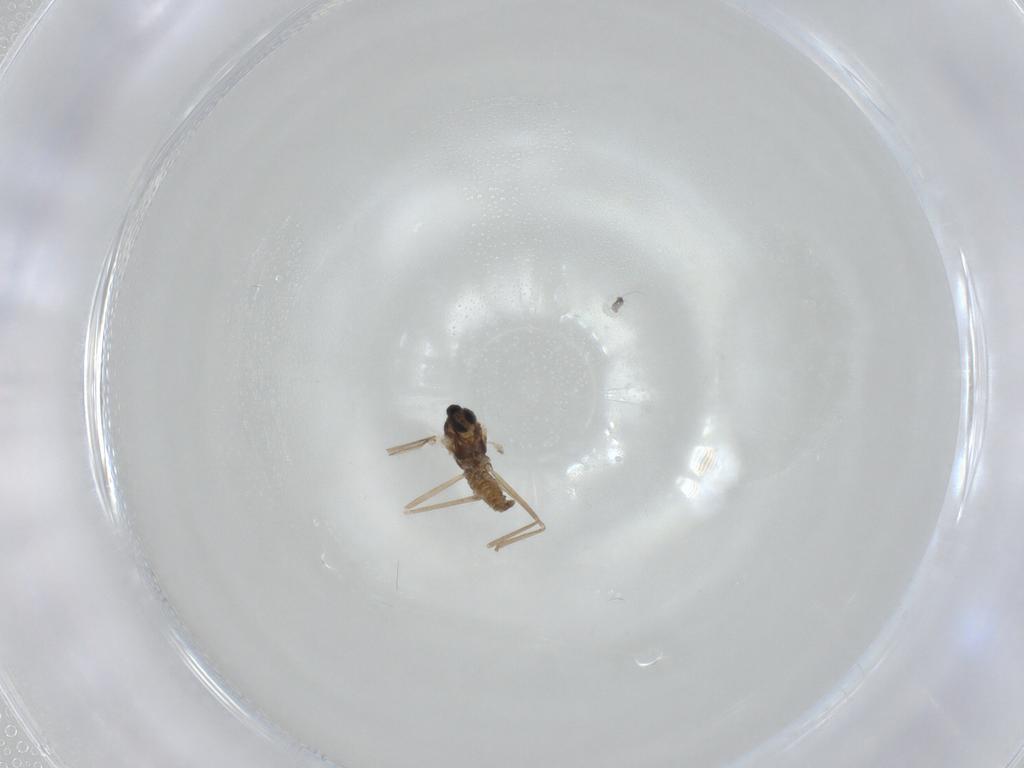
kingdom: Animalia
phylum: Arthropoda
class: Insecta
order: Diptera
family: Cecidomyiidae
